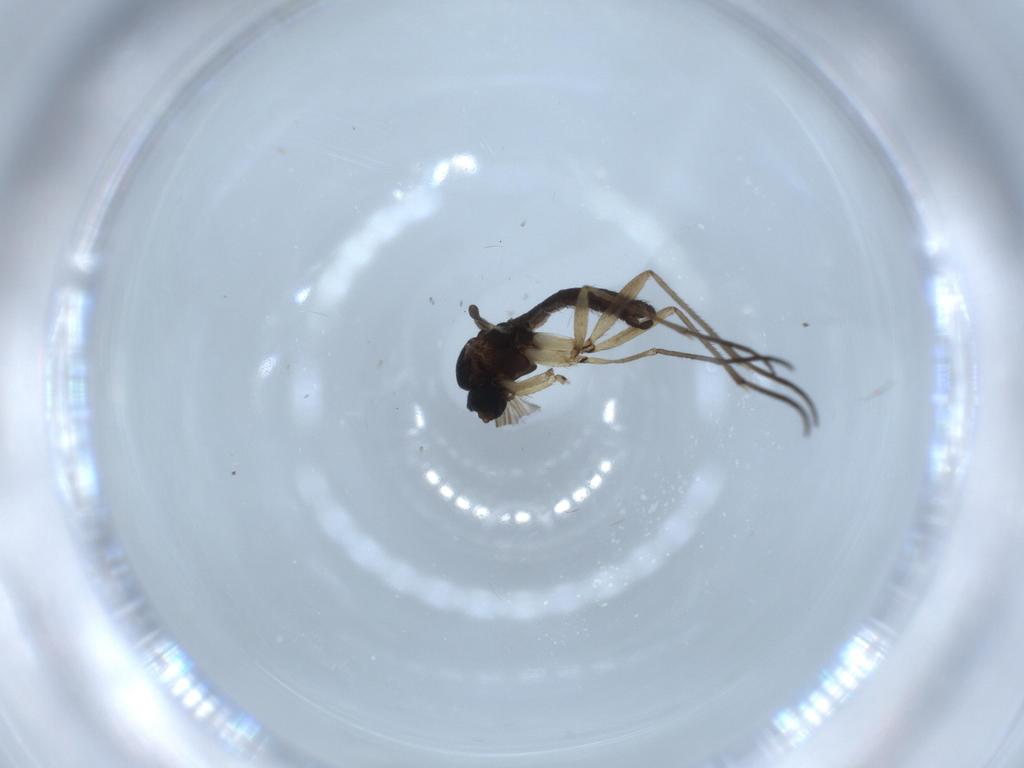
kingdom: Animalia
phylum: Arthropoda
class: Insecta
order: Diptera
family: Sciaridae
